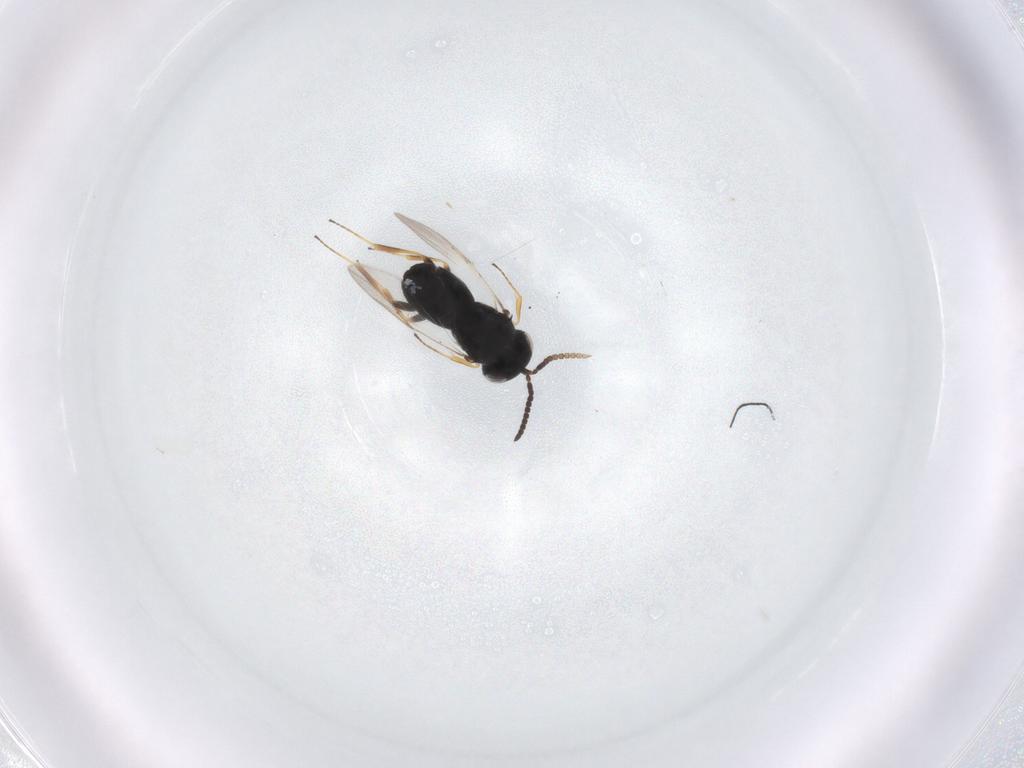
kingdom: Animalia
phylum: Arthropoda
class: Insecta
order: Hymenoptera
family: Scelionidae
